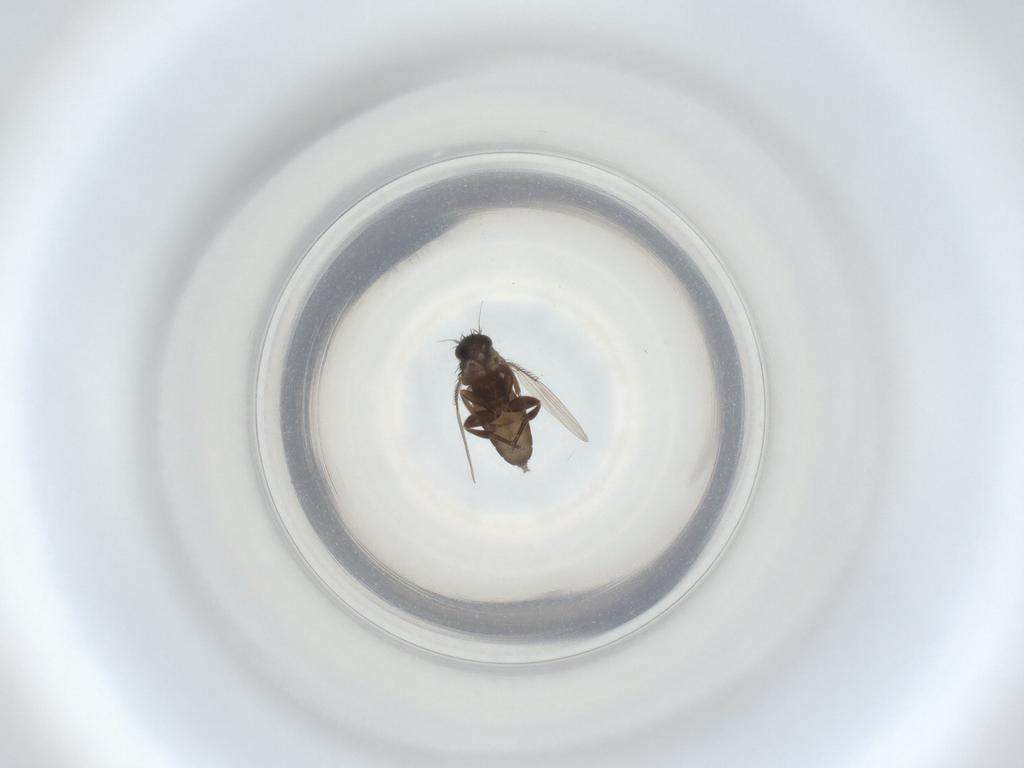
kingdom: Animalia
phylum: Arthropoda
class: Insecta
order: Diptera
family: Phoridae
